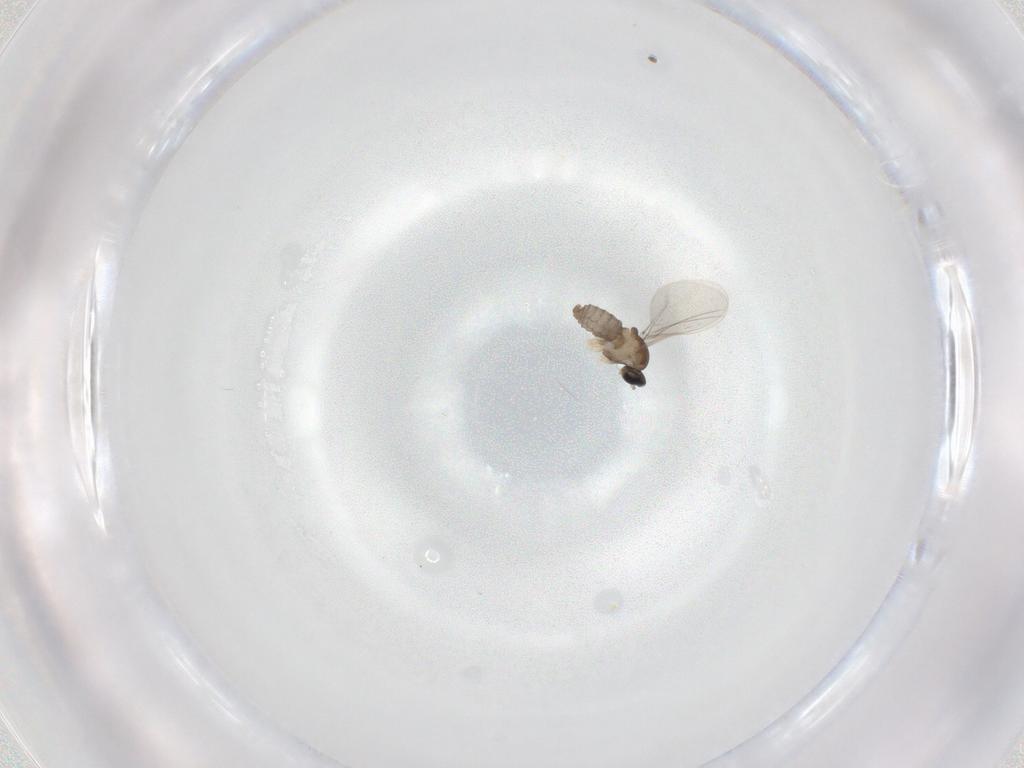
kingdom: Animalia
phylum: Arthropoda
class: Insecta
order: Diptera
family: Cecidomyiidae
